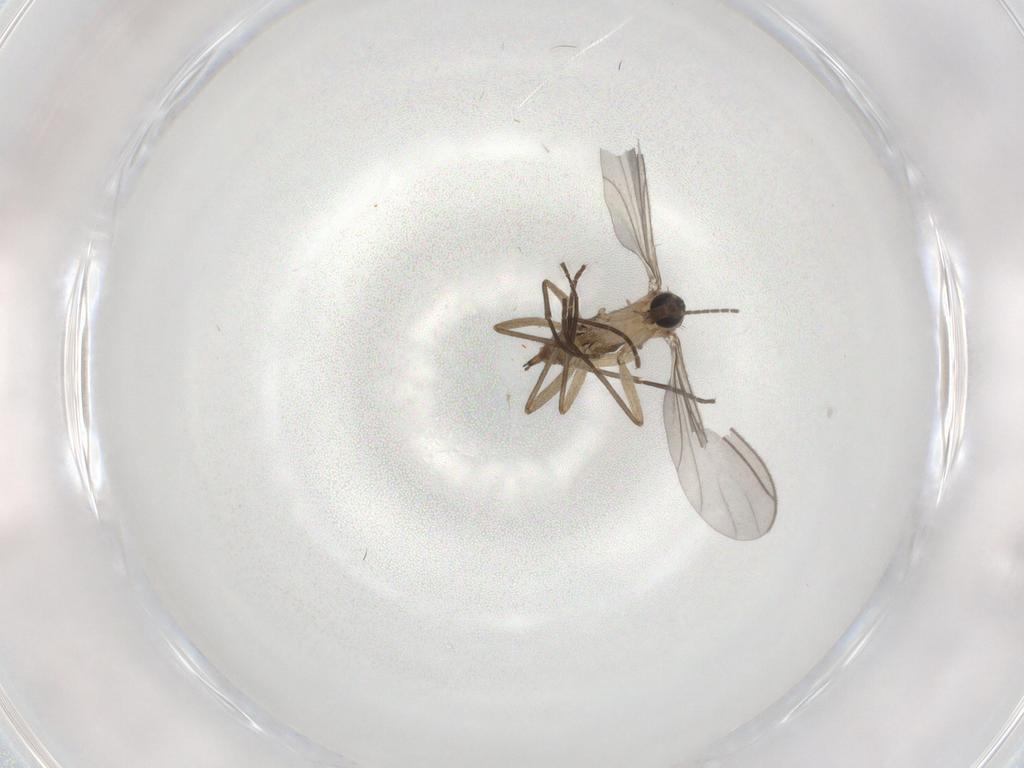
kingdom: Animalia
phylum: Arthropoda
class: Insecta
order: Diptera
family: Sciaridae
